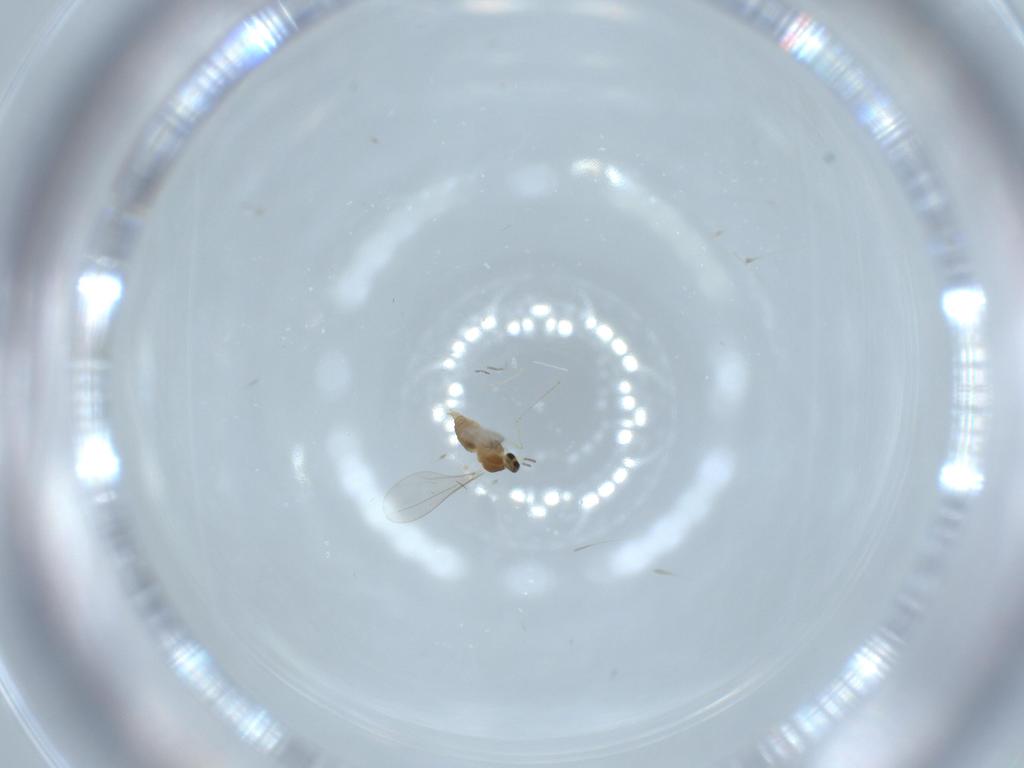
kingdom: Animalia
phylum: Arthropoda
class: Insecta
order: Diptera
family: Cecidomyiidae
